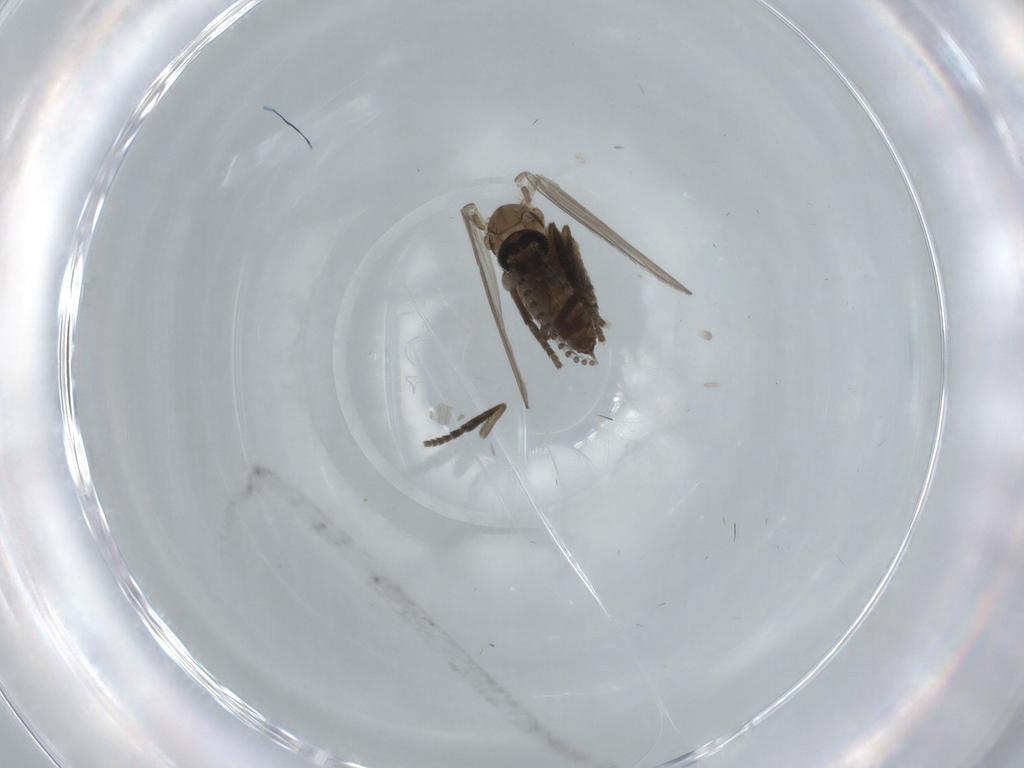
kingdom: Animalia
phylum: Arthropoda
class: Insecta
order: Diptera
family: Psychodidae
